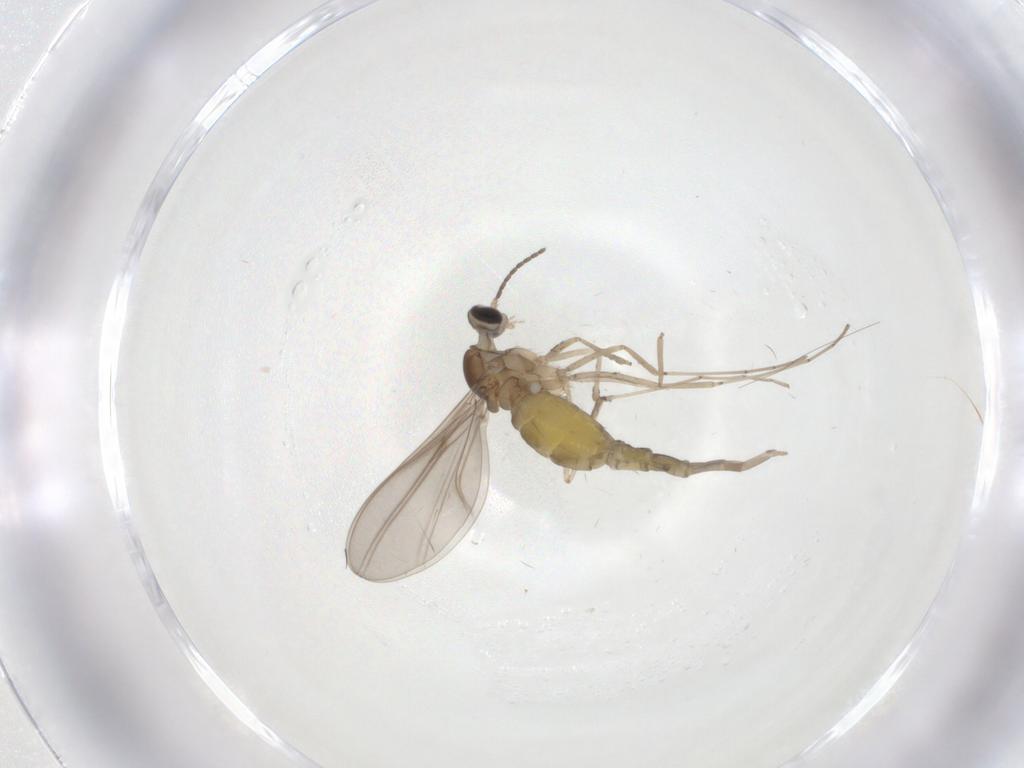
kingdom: Animalia
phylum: Arthropoda
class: Insecta
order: Diptera
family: Cecidomyiidae
